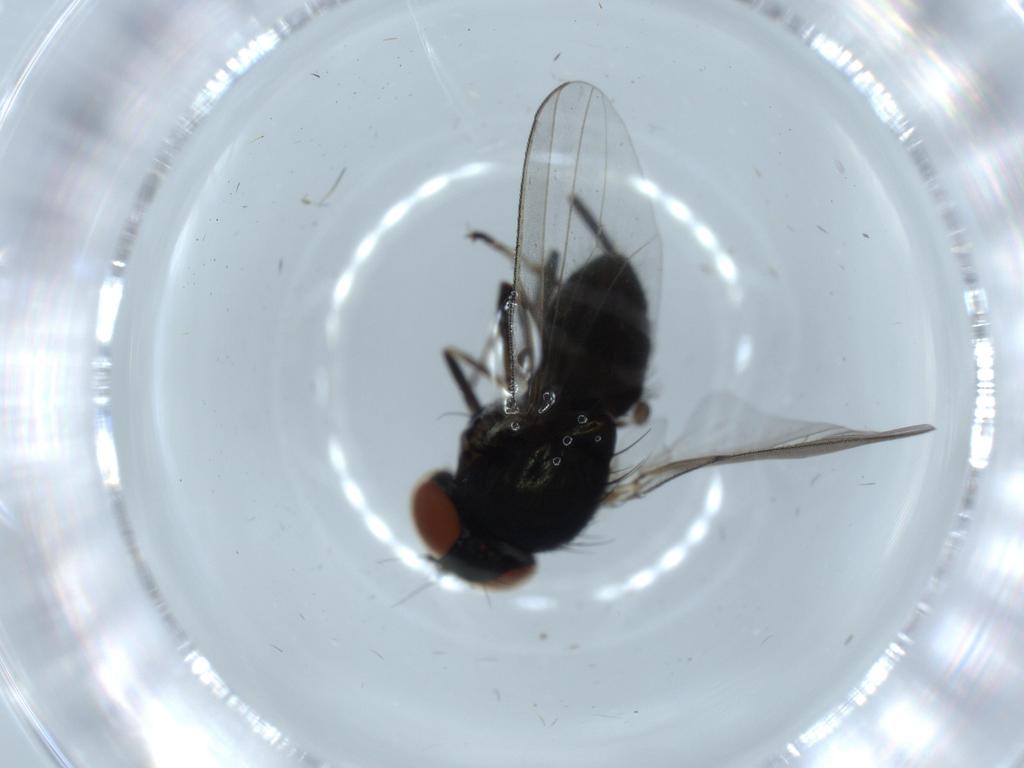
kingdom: Animalia
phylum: Arthropoda
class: Insecta
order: Diptera
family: Milichiidae
